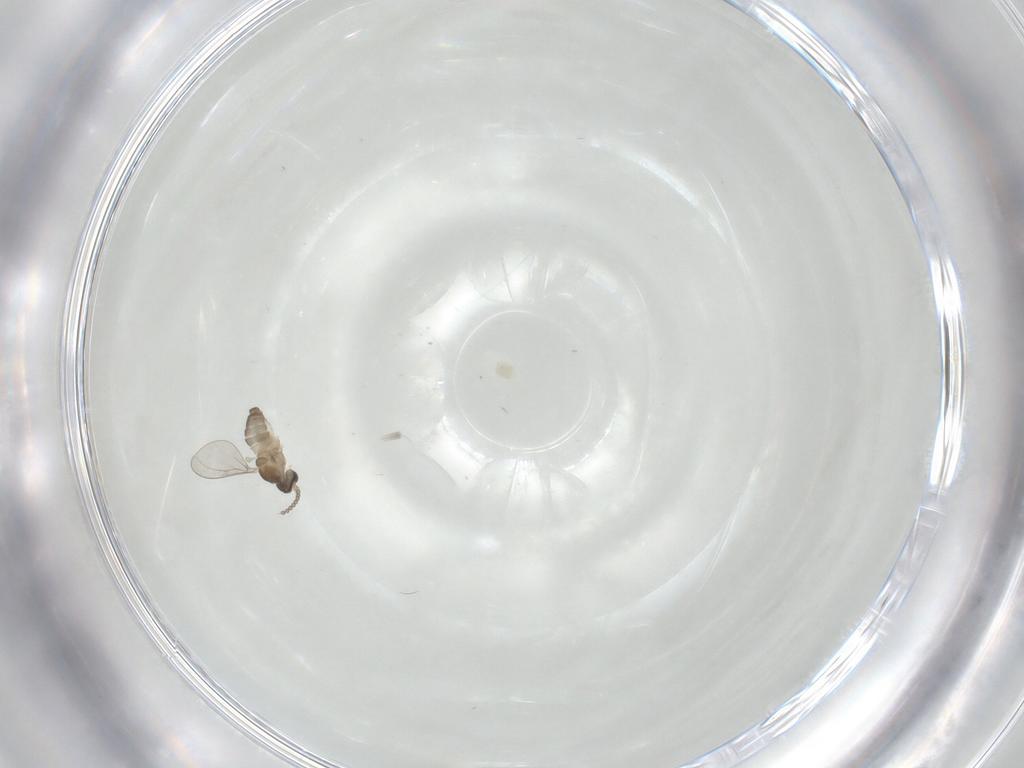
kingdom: Animalia
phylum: Arthropoda
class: Insecta
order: Diptera
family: Cecidomyiidae
